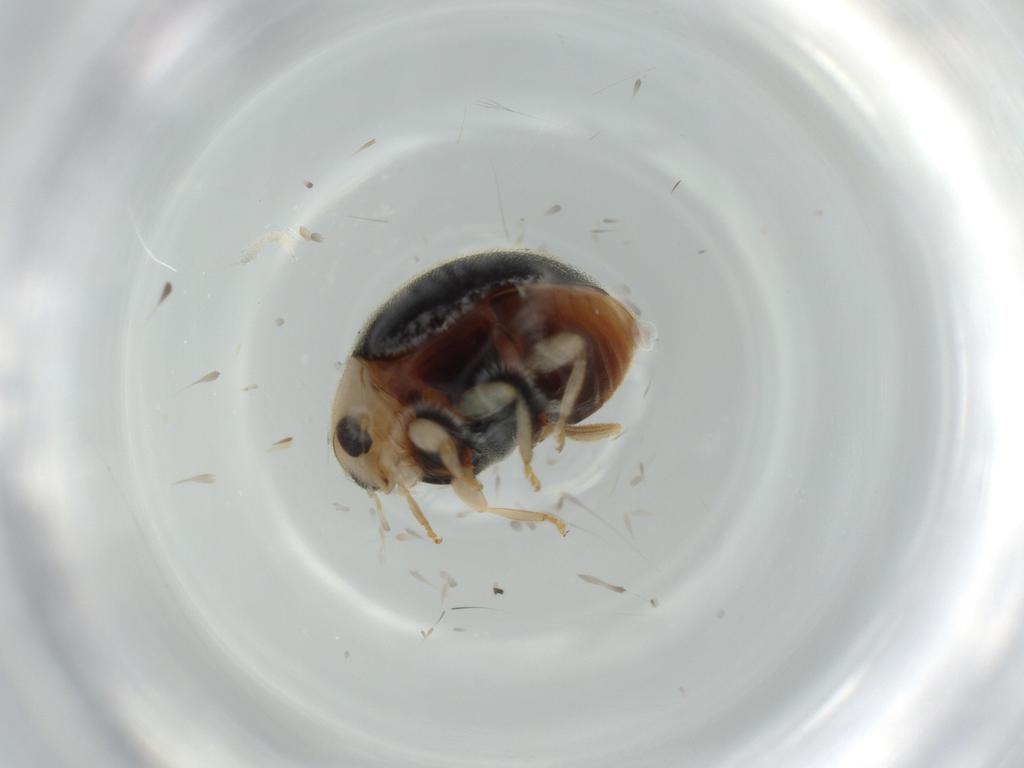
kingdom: Animalia
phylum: Arthropoda
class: Insecta
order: Coleoptera
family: Coccinellidae
